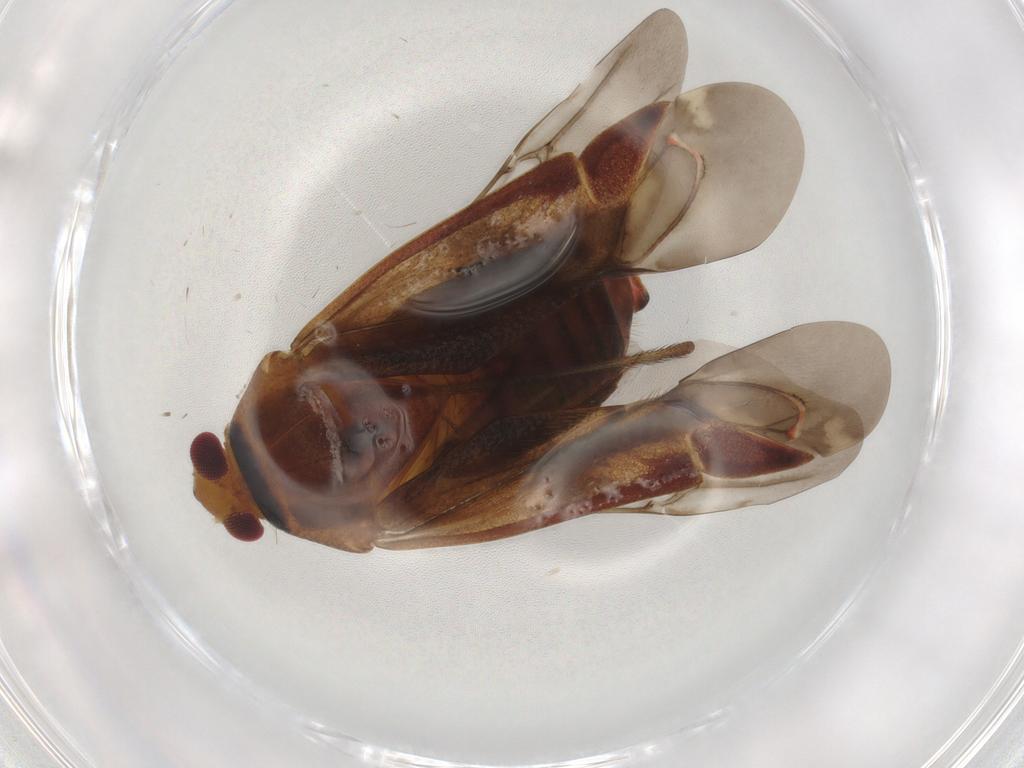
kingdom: Animalia
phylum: Arthropoda
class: Insecta
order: Hemiptera
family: Miridae
